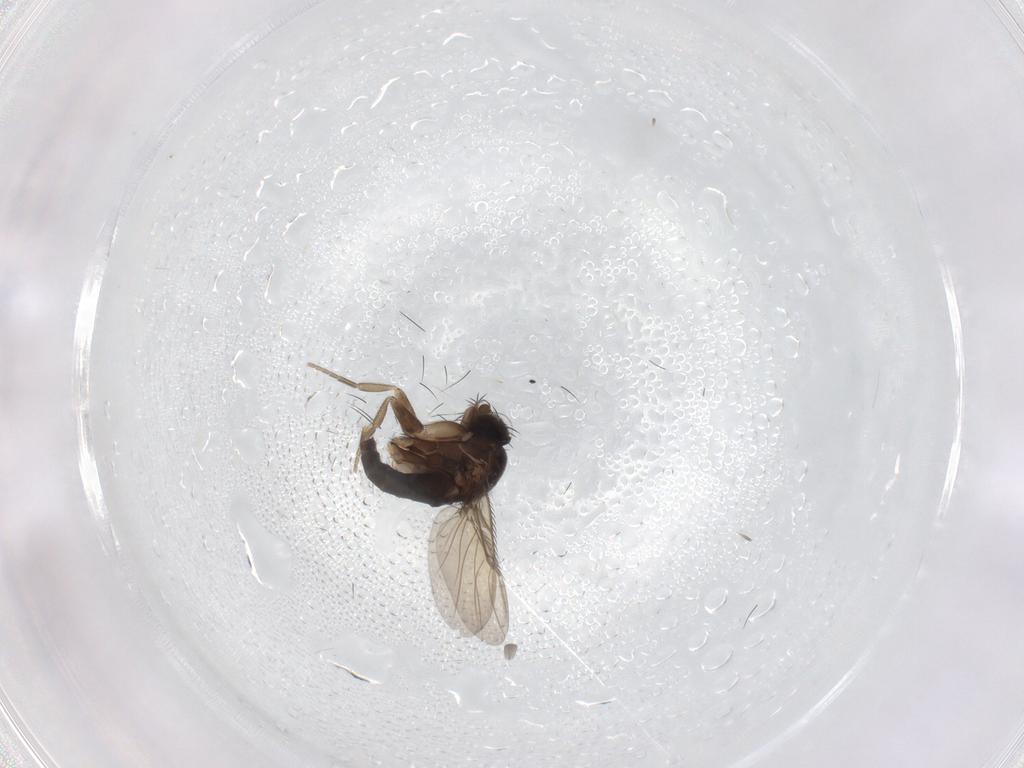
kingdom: Animalia
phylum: Arthropoda
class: Insecta
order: Diptera
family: Phoridae
